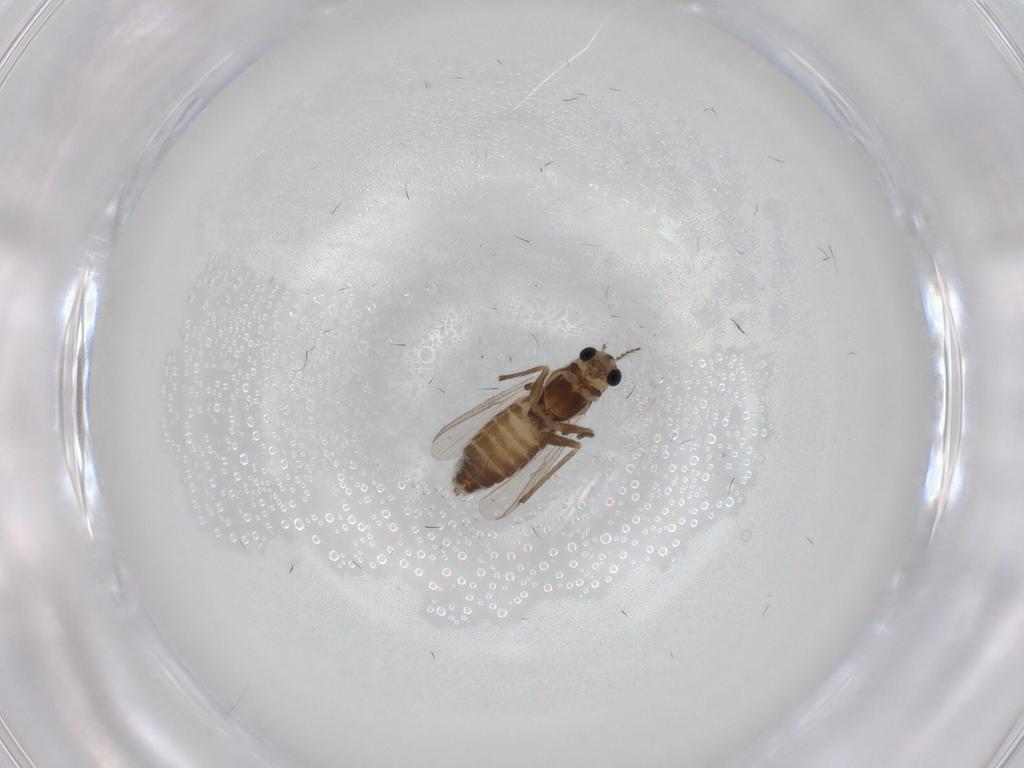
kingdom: Animalia
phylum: Arthropoda
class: Insecta
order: Diptera
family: Chironomidae
